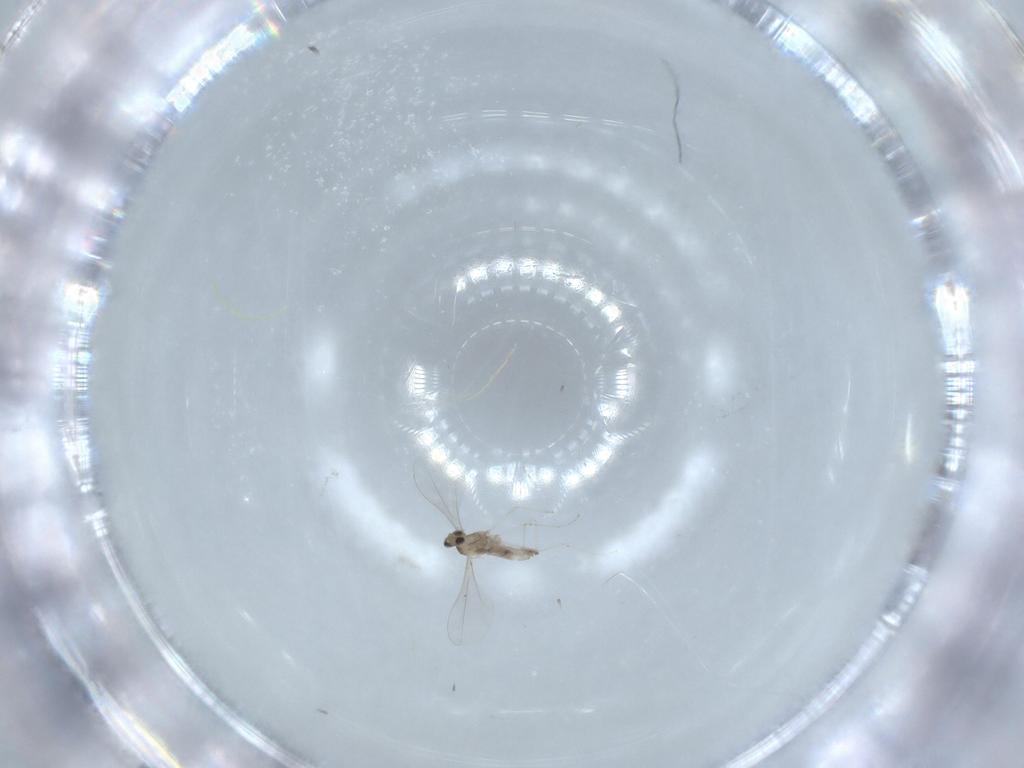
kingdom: Animalia
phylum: Arthropoda
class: Insecta
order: Diptera
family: Cecidomyiidae
